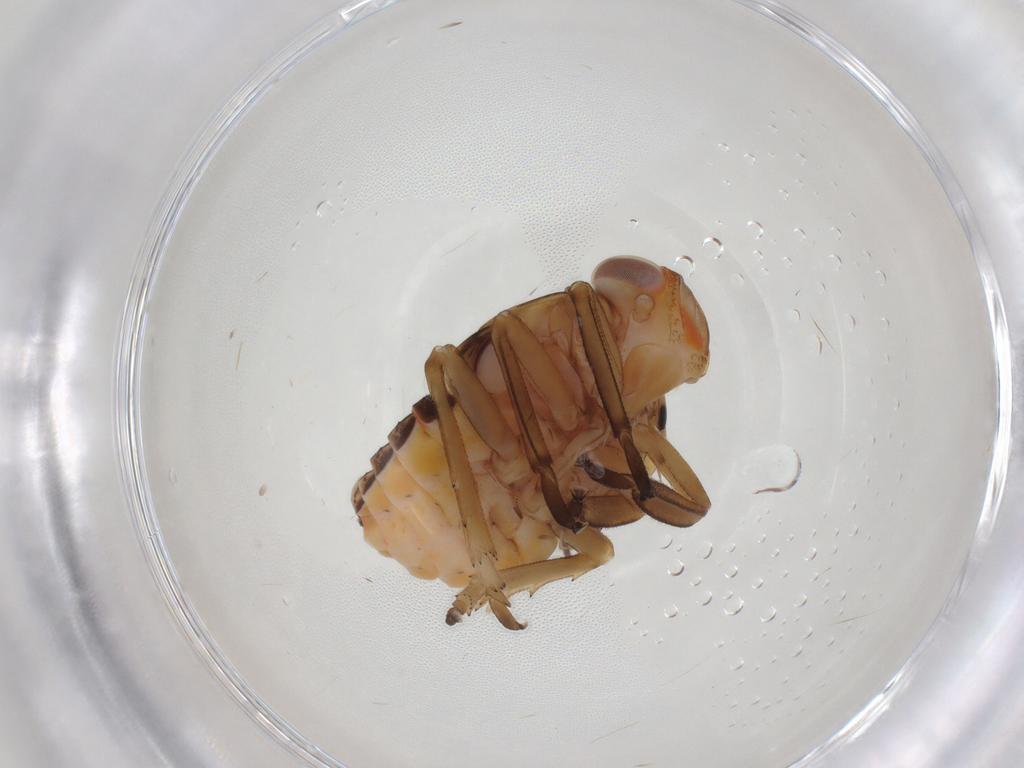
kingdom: Animalia
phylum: Arthropoda
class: Insecta
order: Hemiptera
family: Fulgoroidea_incertae_sedis
